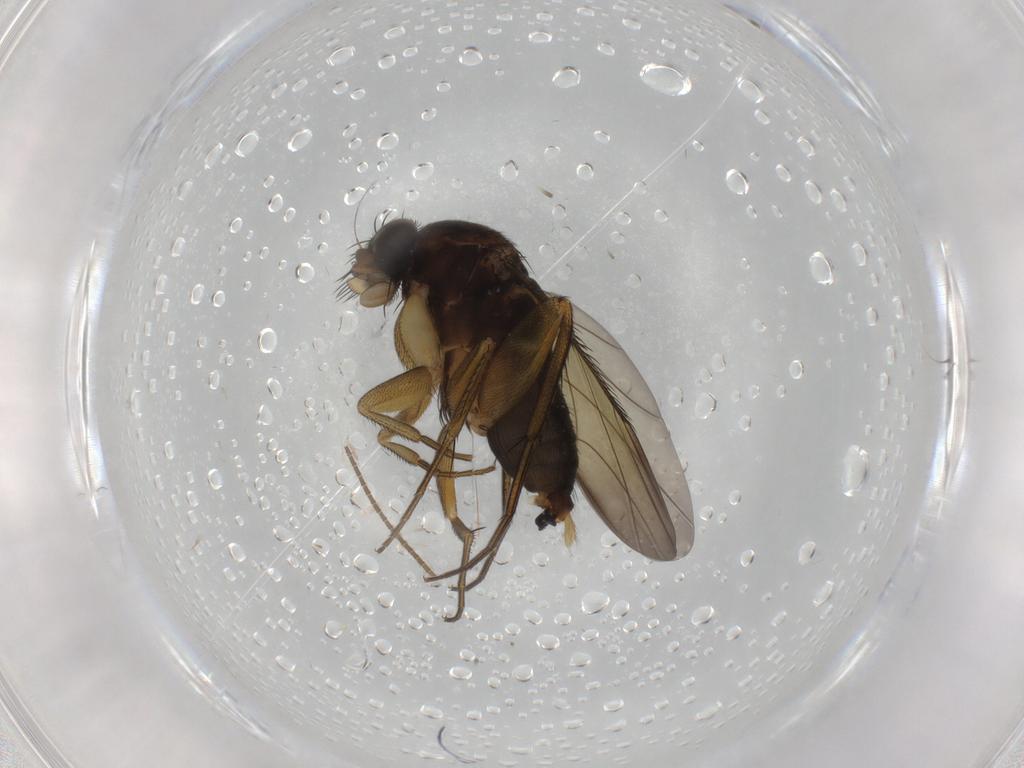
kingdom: Animalia
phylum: Arthropoda
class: Insecta
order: Diptera
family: Phoridae
